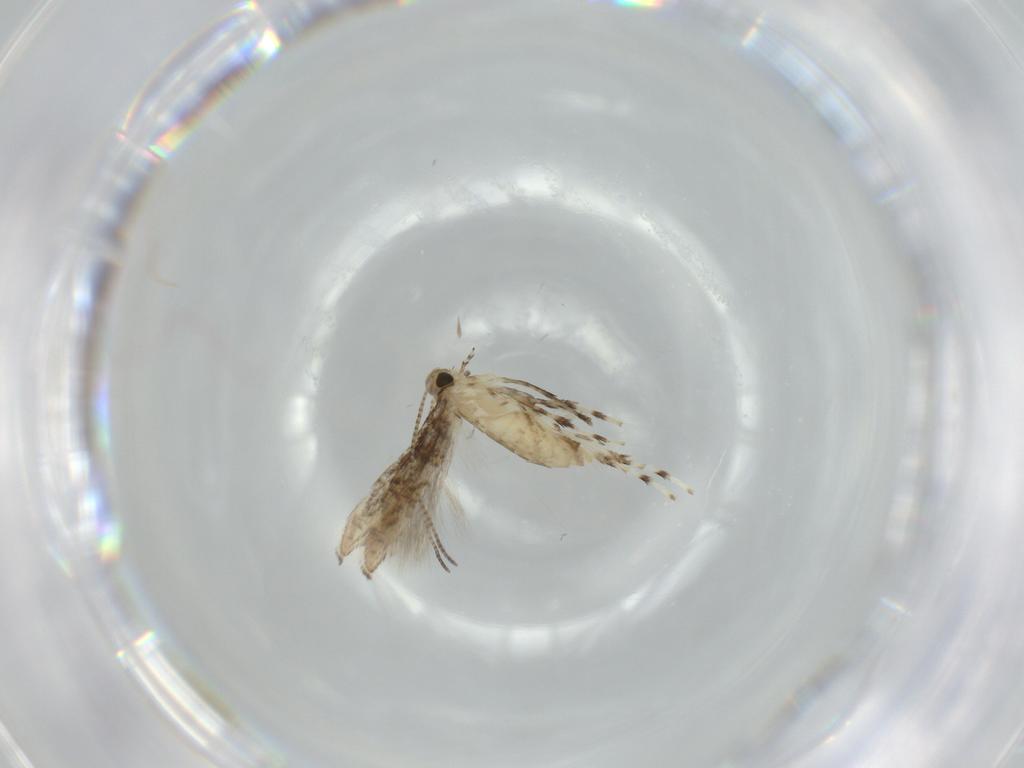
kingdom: Animalia
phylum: Arthropoda
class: Insecta
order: Lepidoptera
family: Gracillariidae
